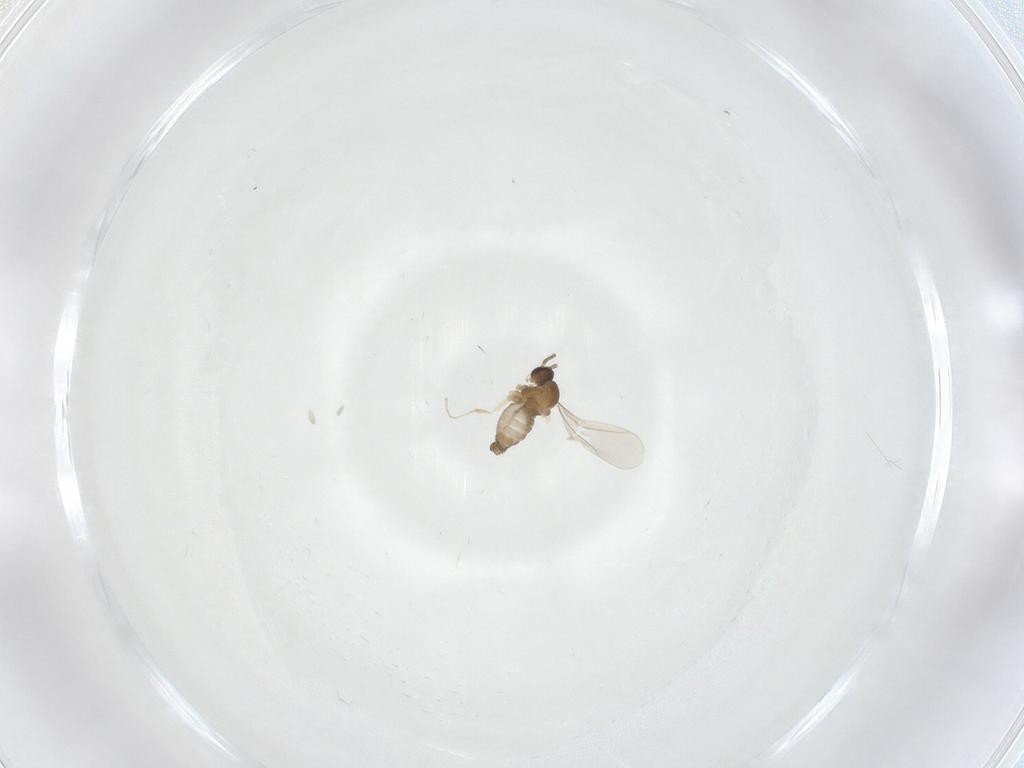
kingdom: Animalia
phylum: Arthropoda
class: Insecta
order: Diptera
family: Cecidomyiidae
